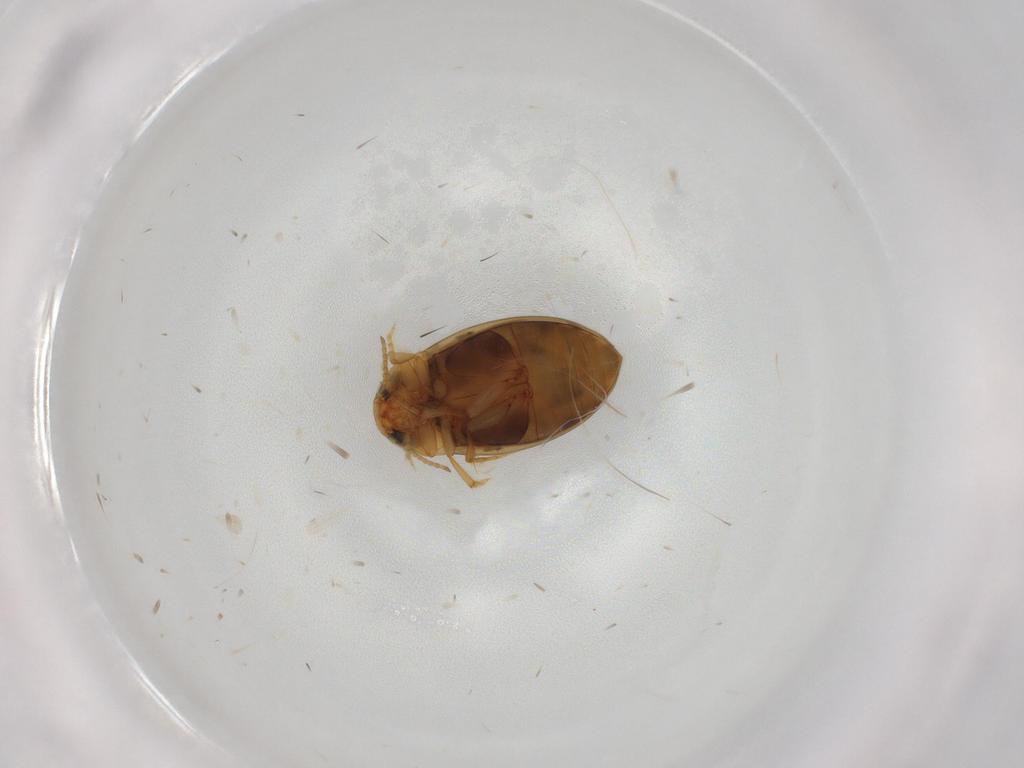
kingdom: Animalia
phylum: Arthropoda
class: Insecta
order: Coleoptera
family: Dytiscidae
